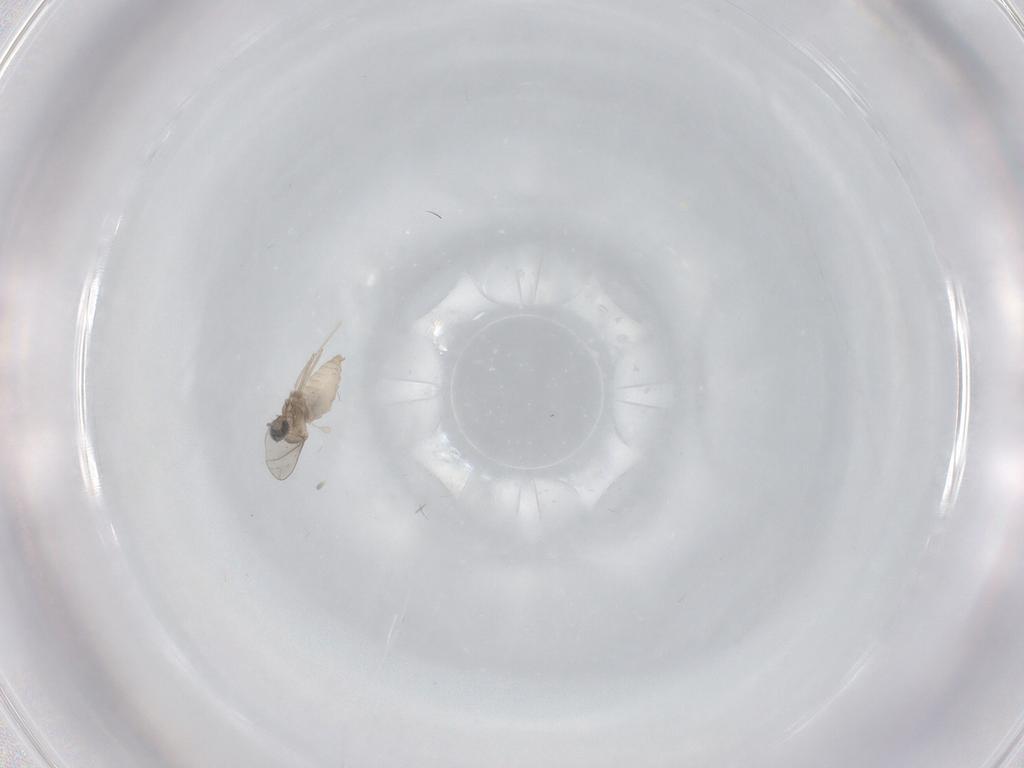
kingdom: Animalia
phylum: Arthropoda
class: Insecta
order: Diptera
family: Cecidomyiidae
